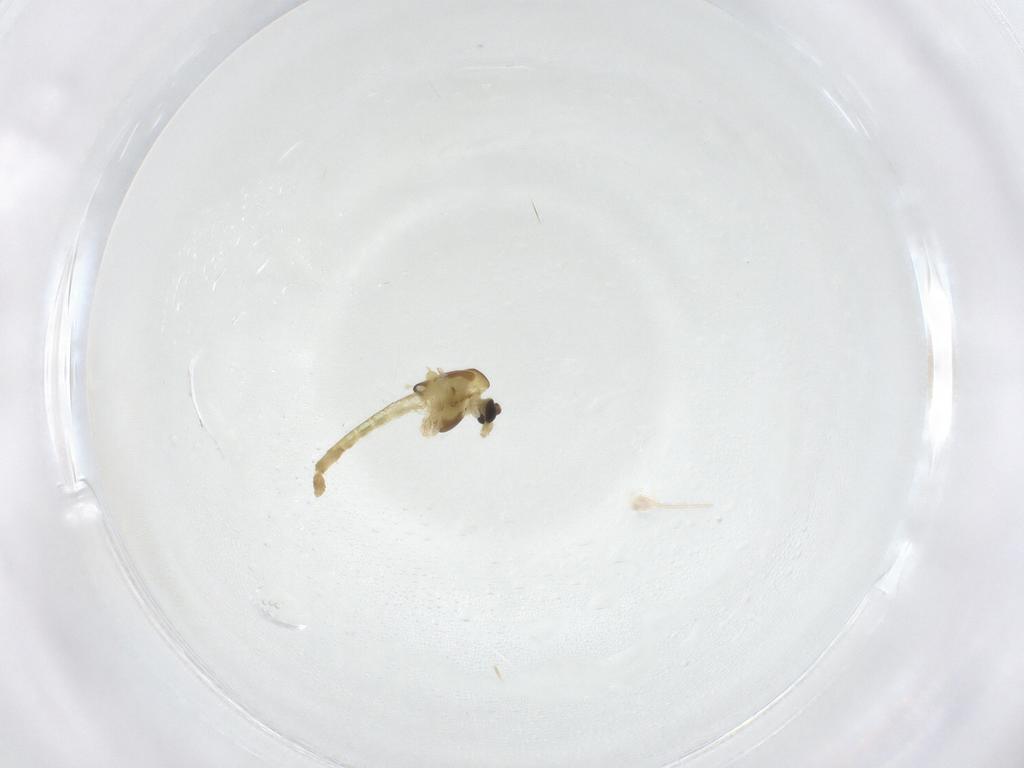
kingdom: Animalia
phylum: Arthropoda
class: Insecta
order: Diptera
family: Chironomidae
